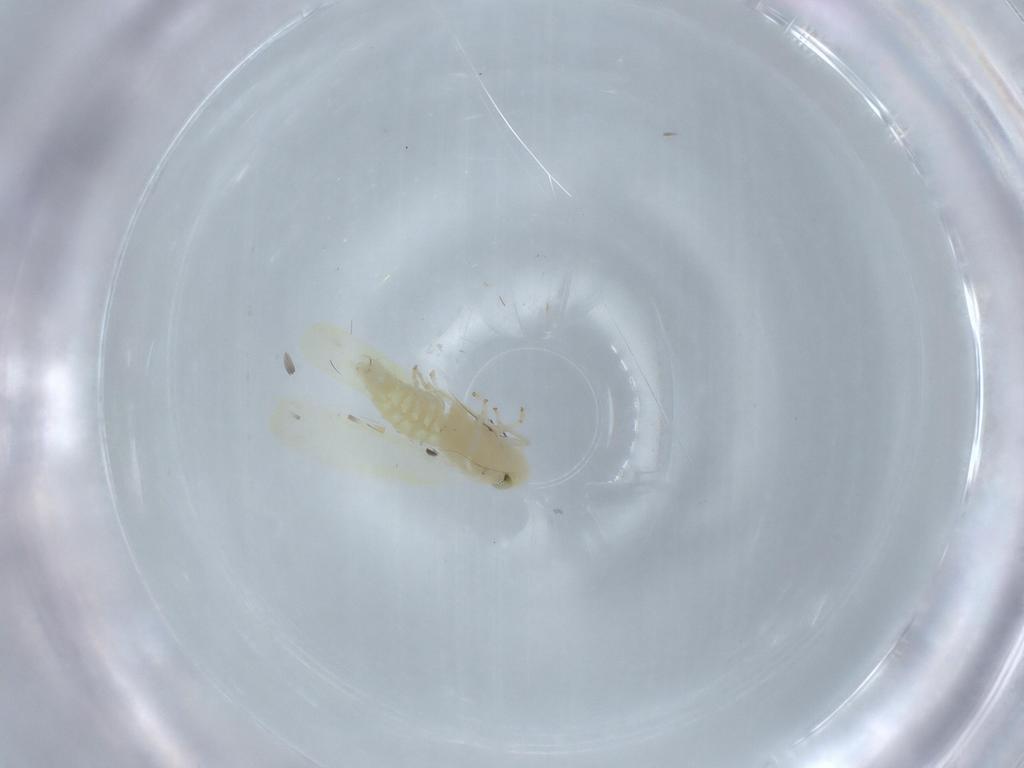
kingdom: Animalia
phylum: Arthropoda
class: Insecta
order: Hemiptera
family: Cicadellidae
